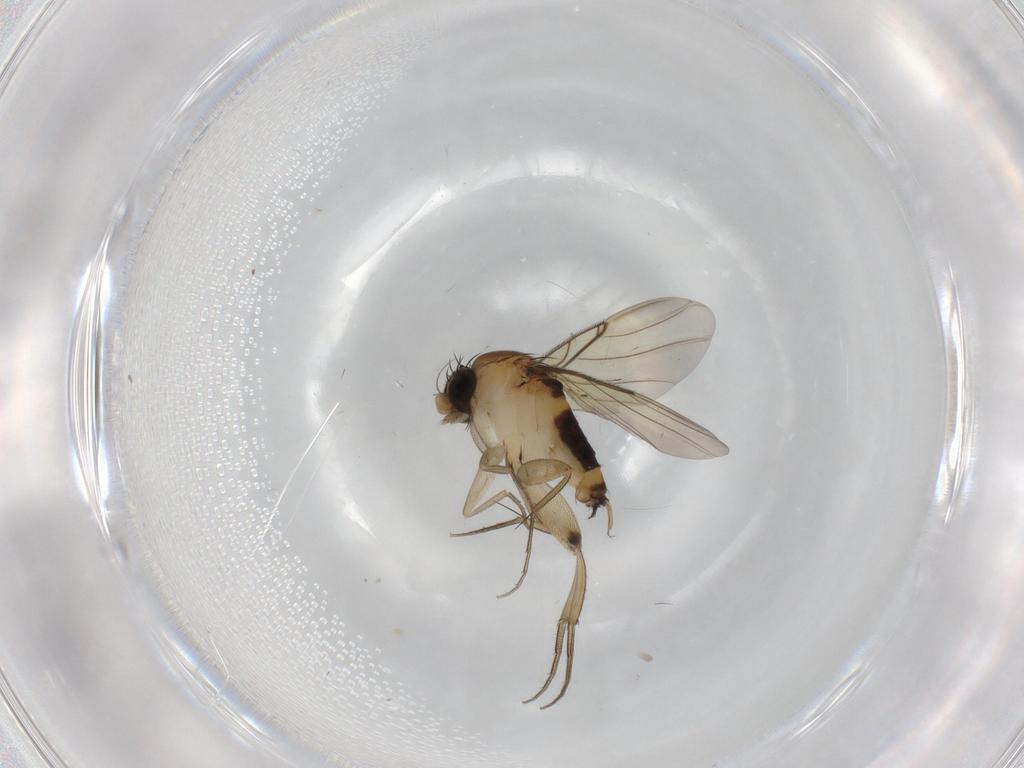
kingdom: Animalia
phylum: Arthropoda
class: Insecta
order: Diptera
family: Phoridae
